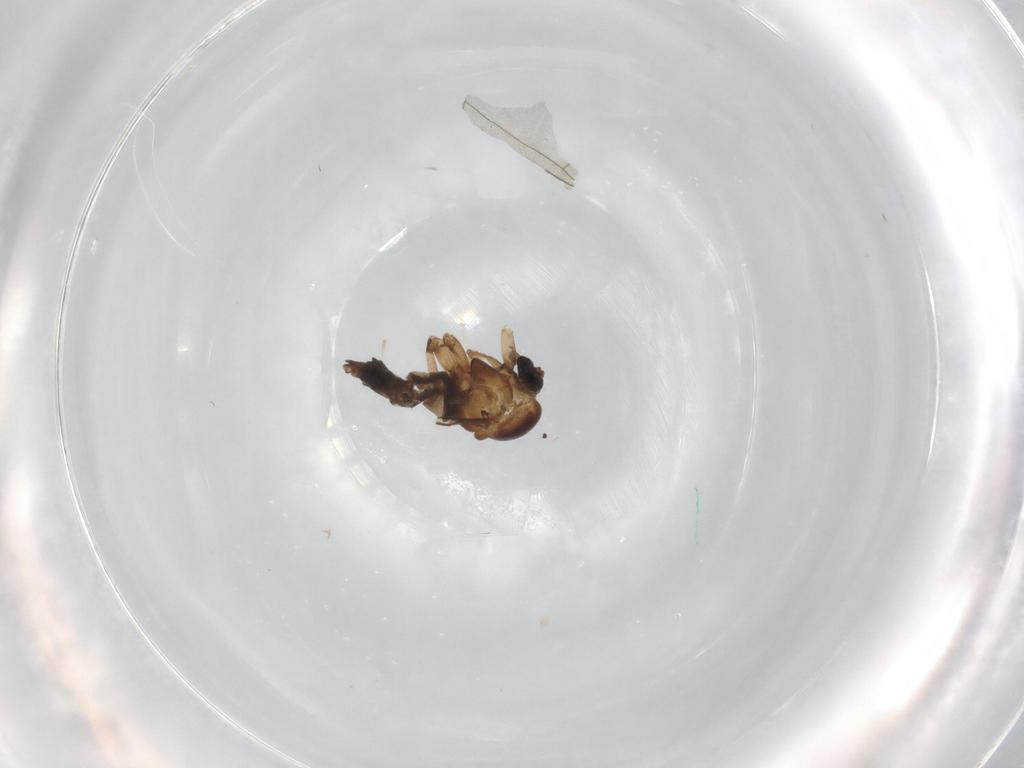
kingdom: Animalia
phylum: Arthropoda
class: Insecta
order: Diptera
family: Sciaridae
